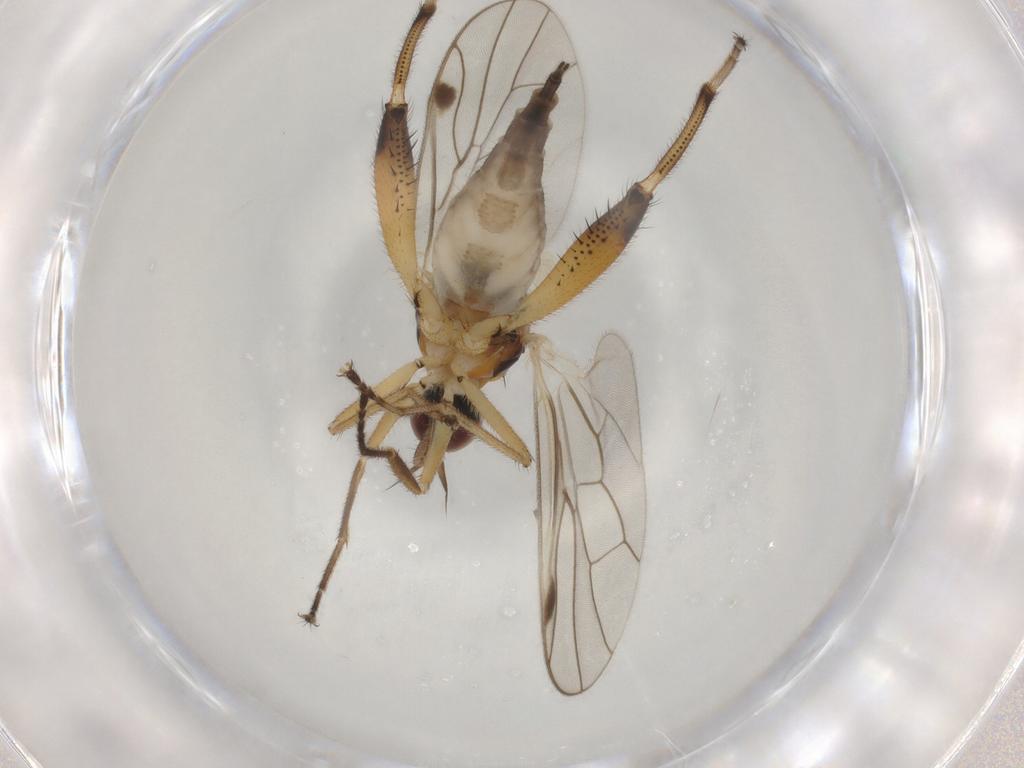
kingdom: Animalia
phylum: Arthropoda
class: Insecta
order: Diptera
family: Hybotidae
